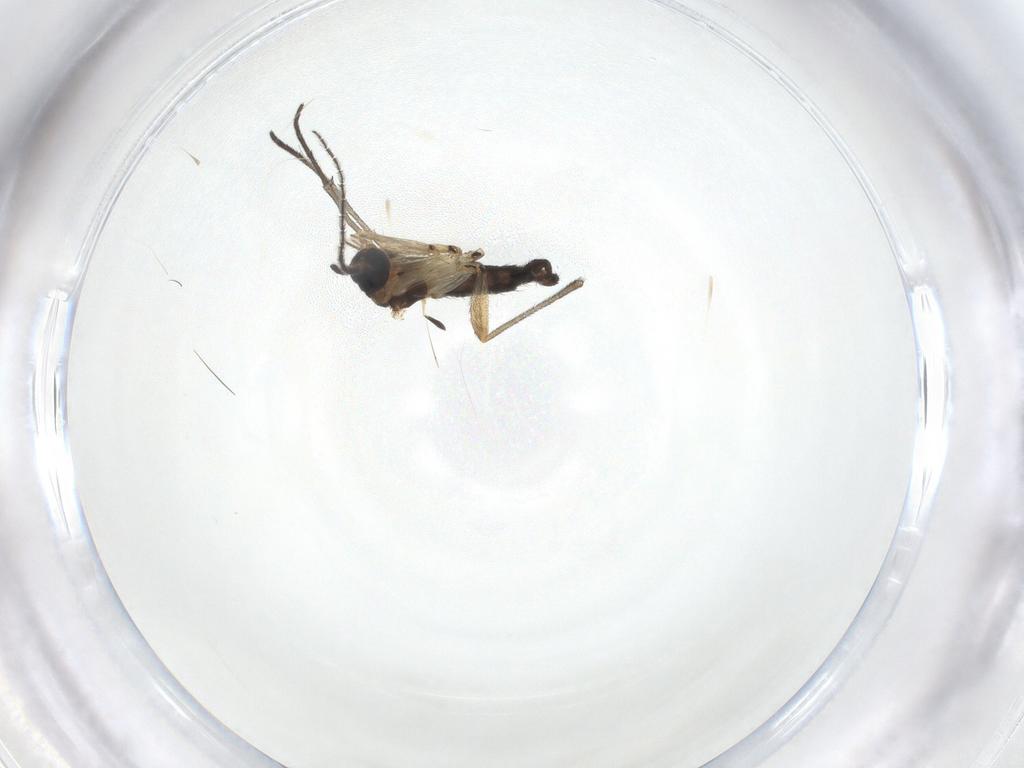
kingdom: Animalia
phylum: Arthropoda
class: Insecta
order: Diptera
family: Sciaridae
